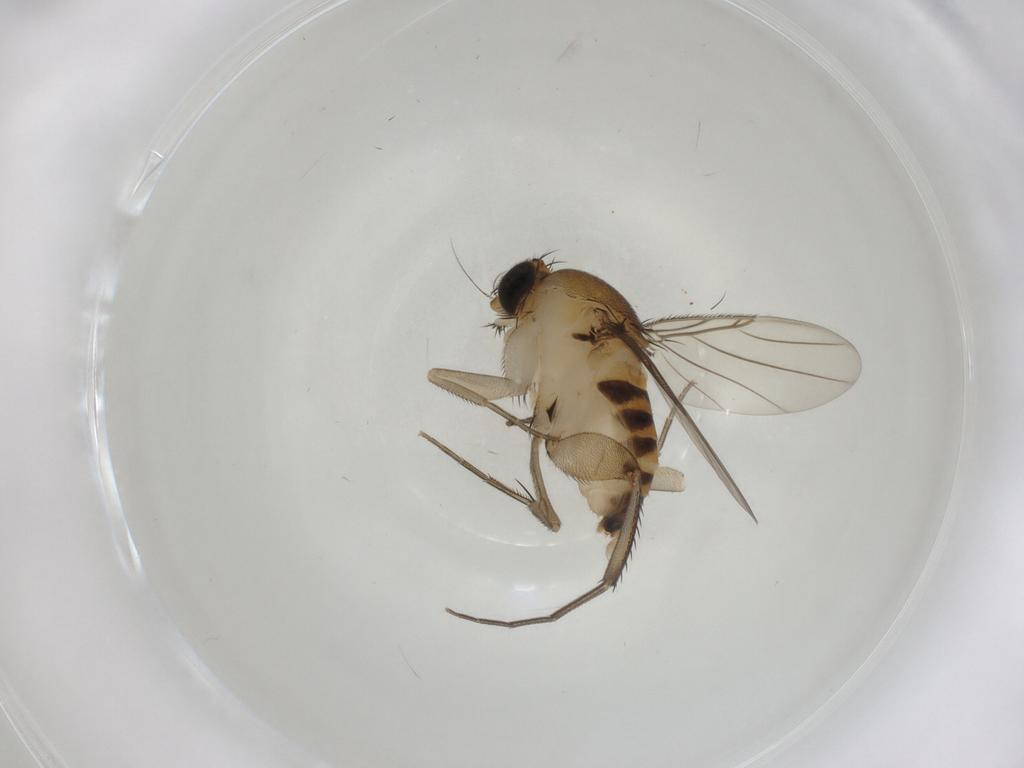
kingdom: Animalia
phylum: Arthropoda
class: Insecta
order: Diptera
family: Phoridae
